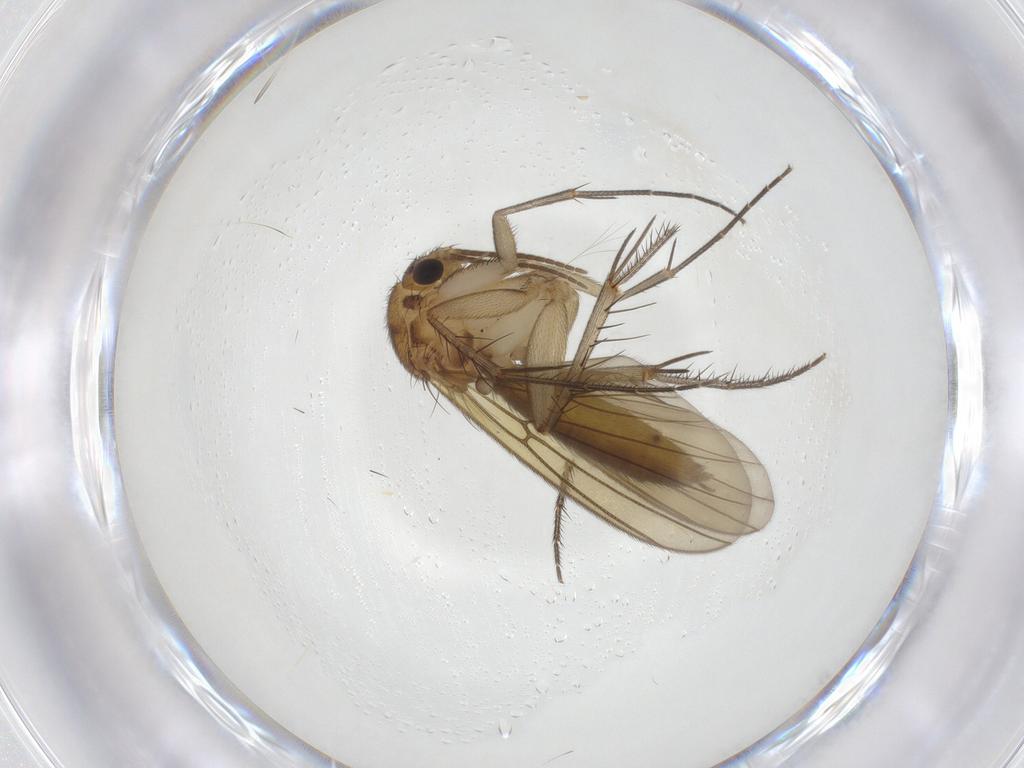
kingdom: Animalia
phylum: Arthropoda
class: Insecta
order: Diptera
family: Mycetophilidae
